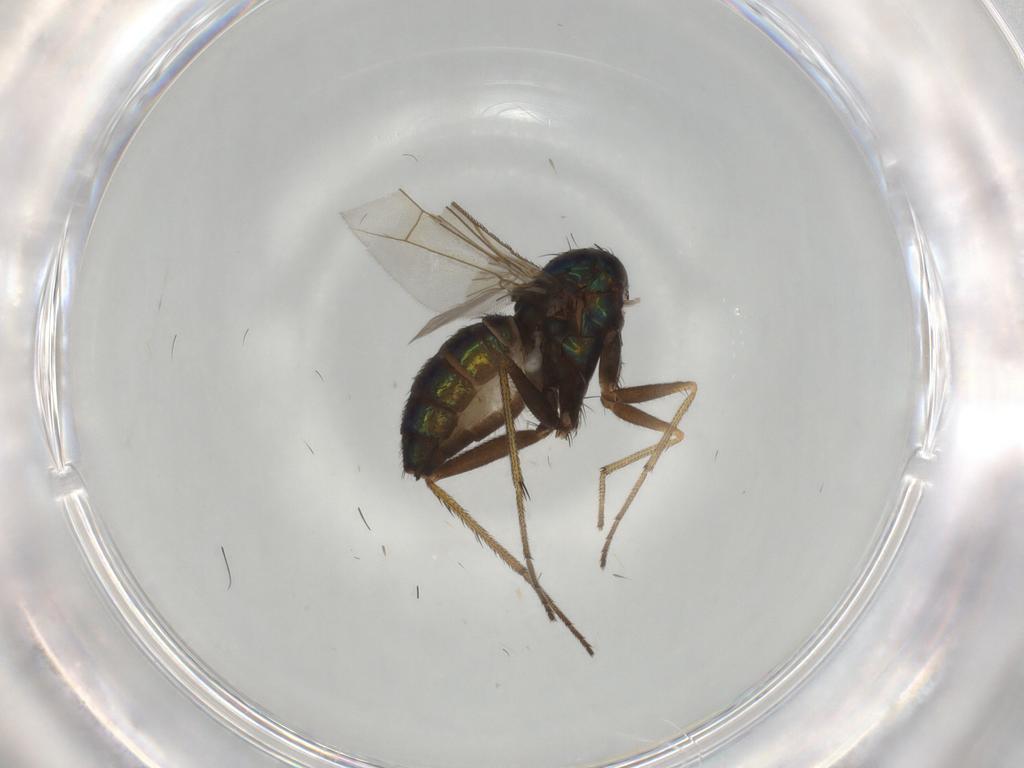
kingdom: Animalia
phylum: Arthropoda
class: Insecta
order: Diptera
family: Dolichopodidae
